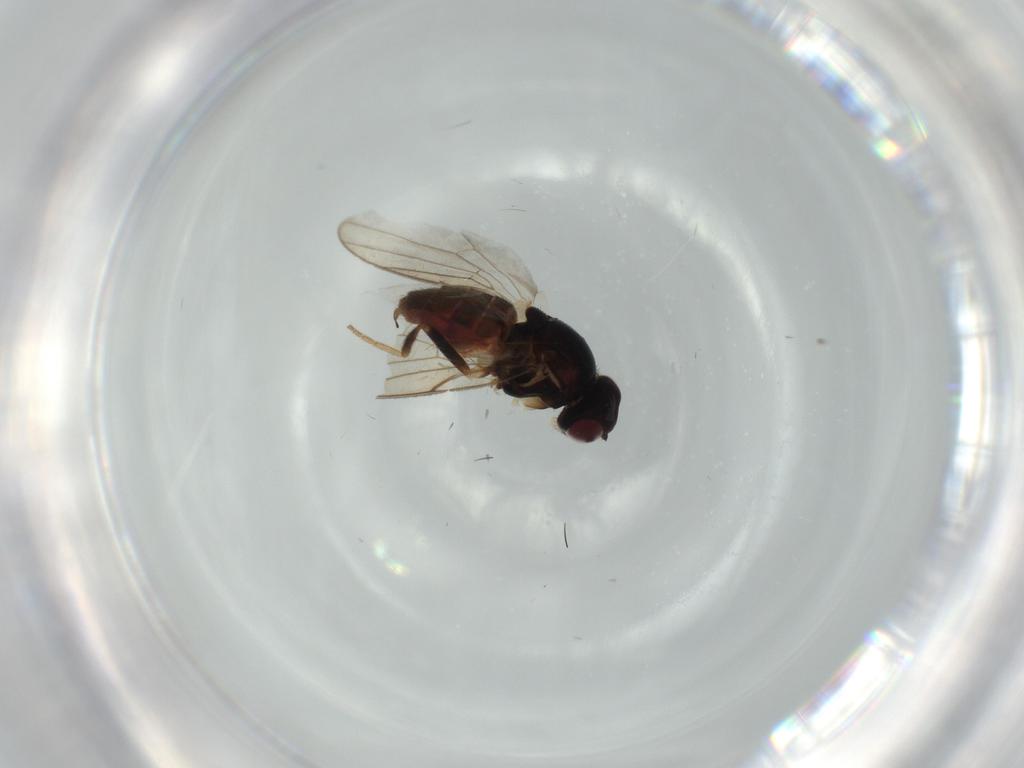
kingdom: Animalia
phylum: Arthropoda
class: Insecta
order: Diptera
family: Chloropidae
